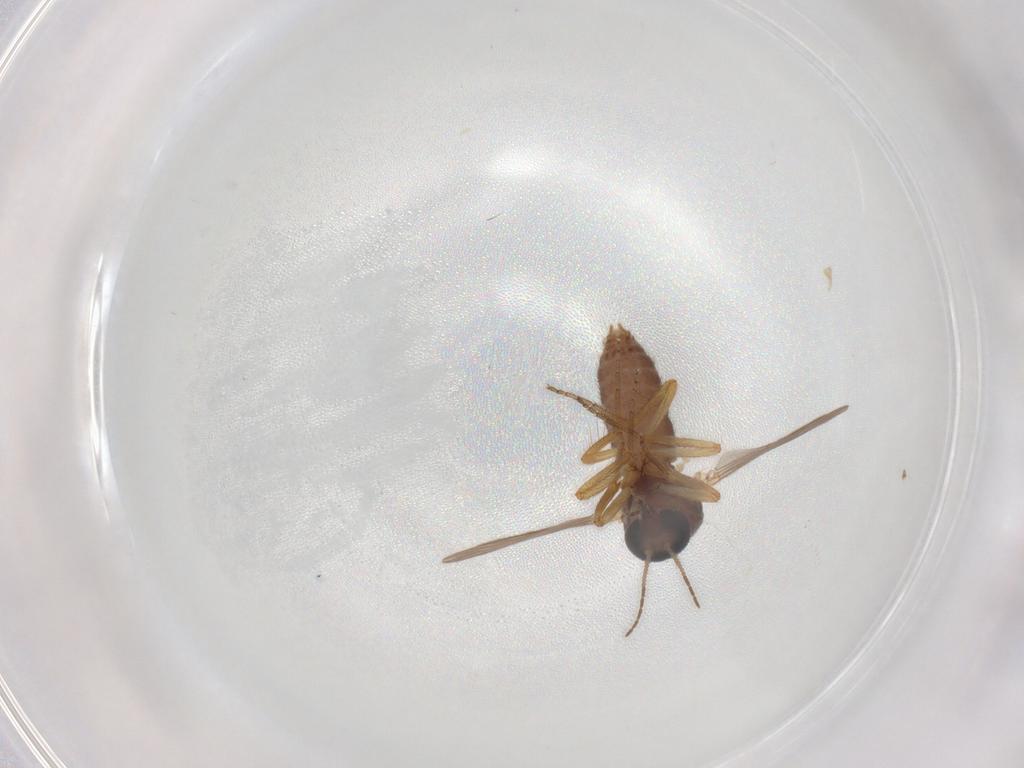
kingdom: Animalia
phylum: Arthropoda
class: Insecta
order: Diptera
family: Ceratopogonidae
